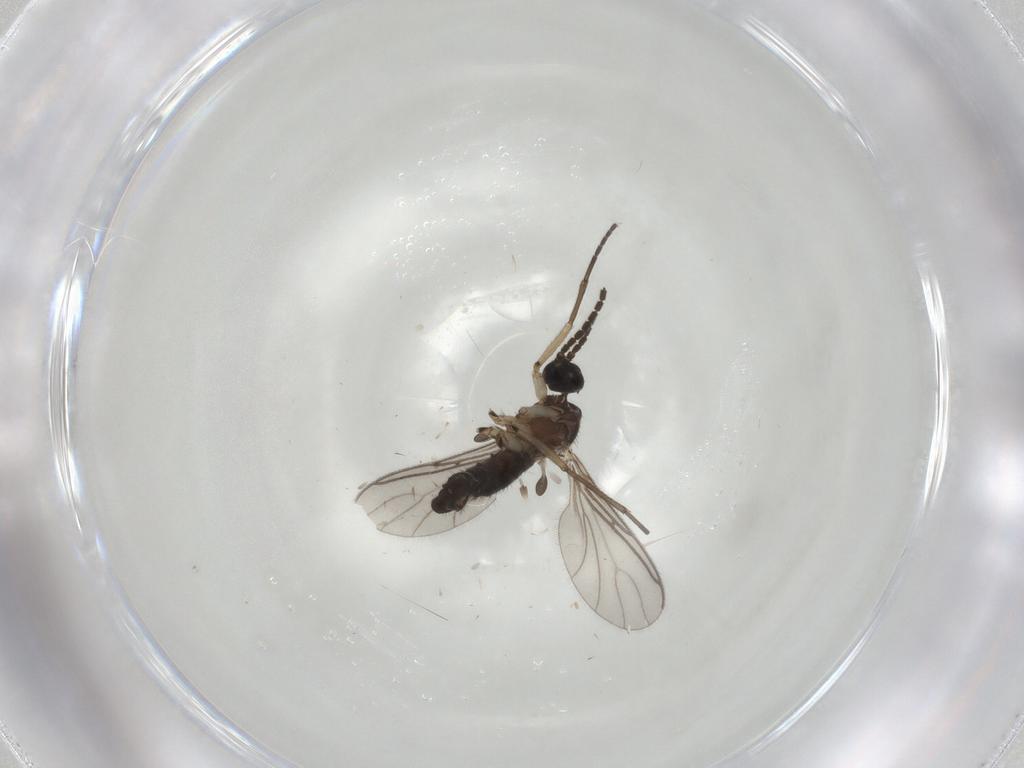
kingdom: Animalia
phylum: Arthropoda
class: Insecta
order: Diptera
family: Sciaridae
